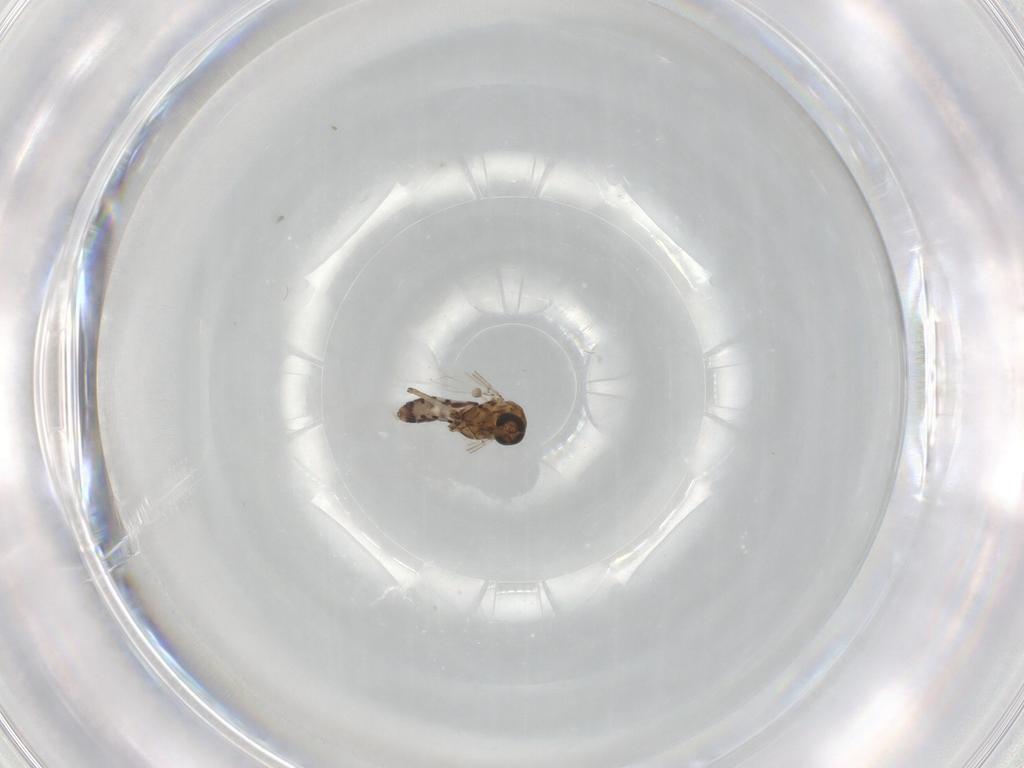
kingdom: Animalia
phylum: Arthropoda
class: Insecta
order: Diptera
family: Ceratopogonidae
